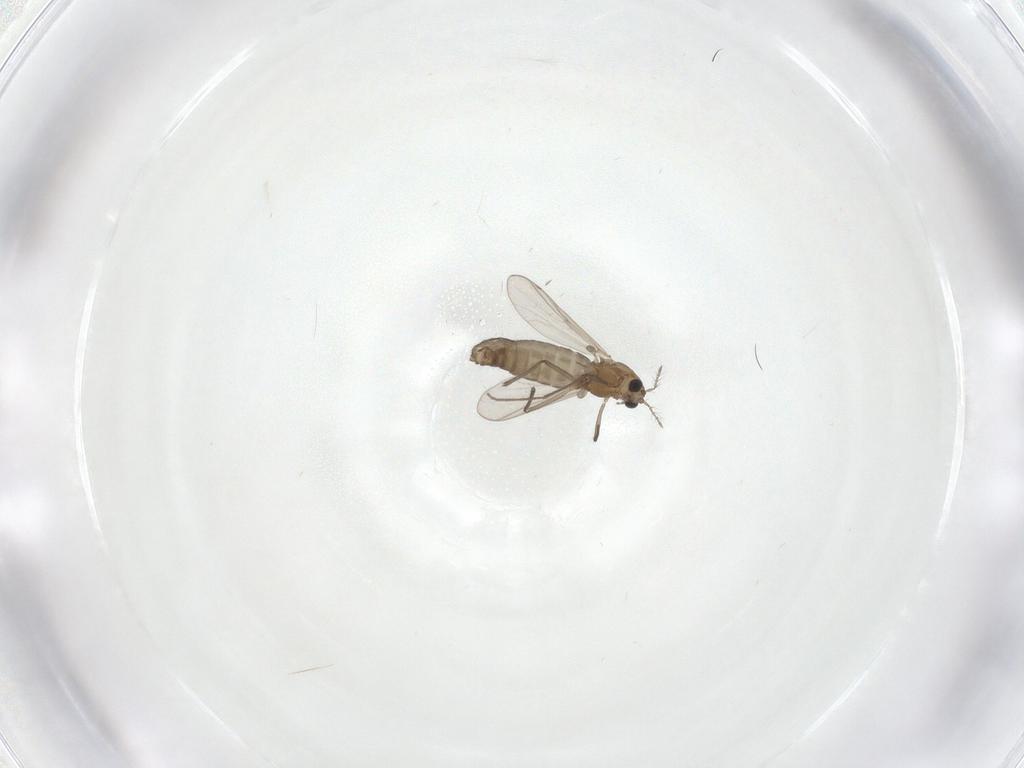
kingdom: Animalia
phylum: Arthropoda
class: Insecta
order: Diptera
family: Chironomidae
